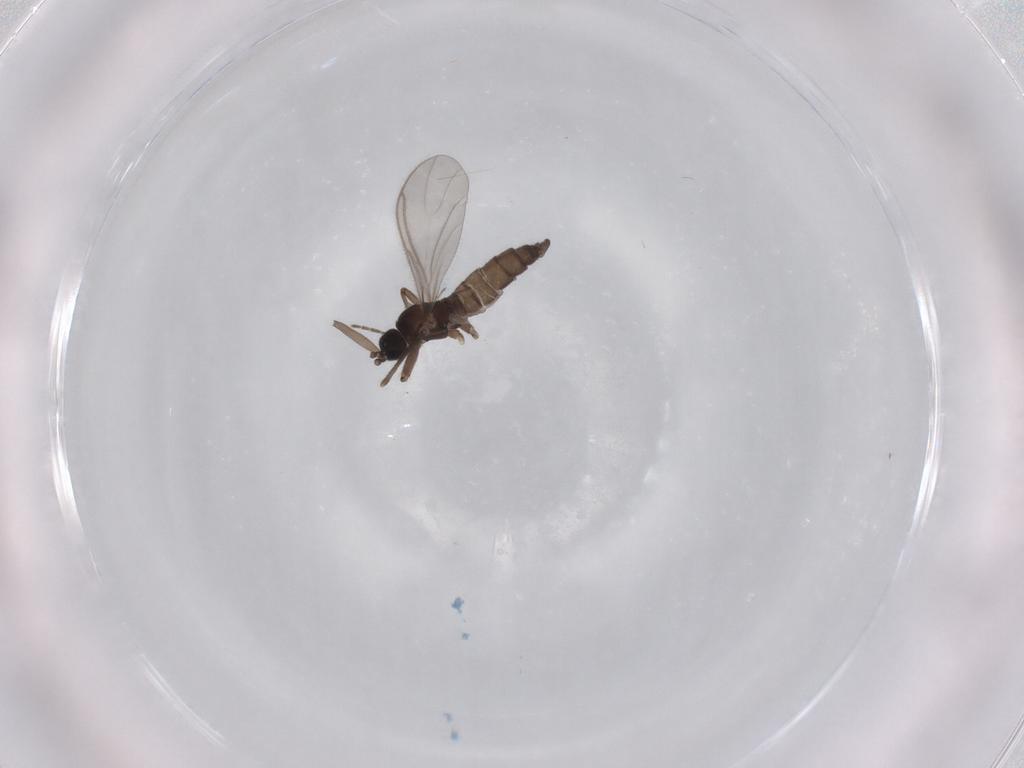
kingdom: Animalia
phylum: Arthropoda
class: Insecta
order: Diptera
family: Sciaridae
